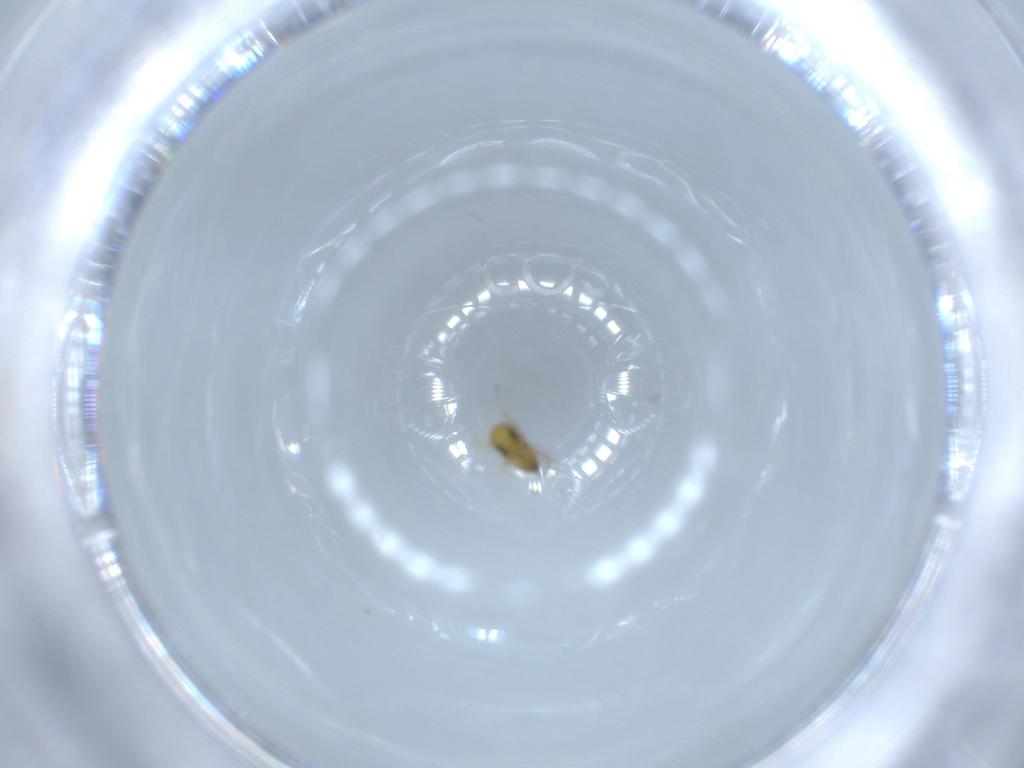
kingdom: Animalia
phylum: Arthropoda
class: Insecta
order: Hymenoptera
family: Trichogrammatidae
